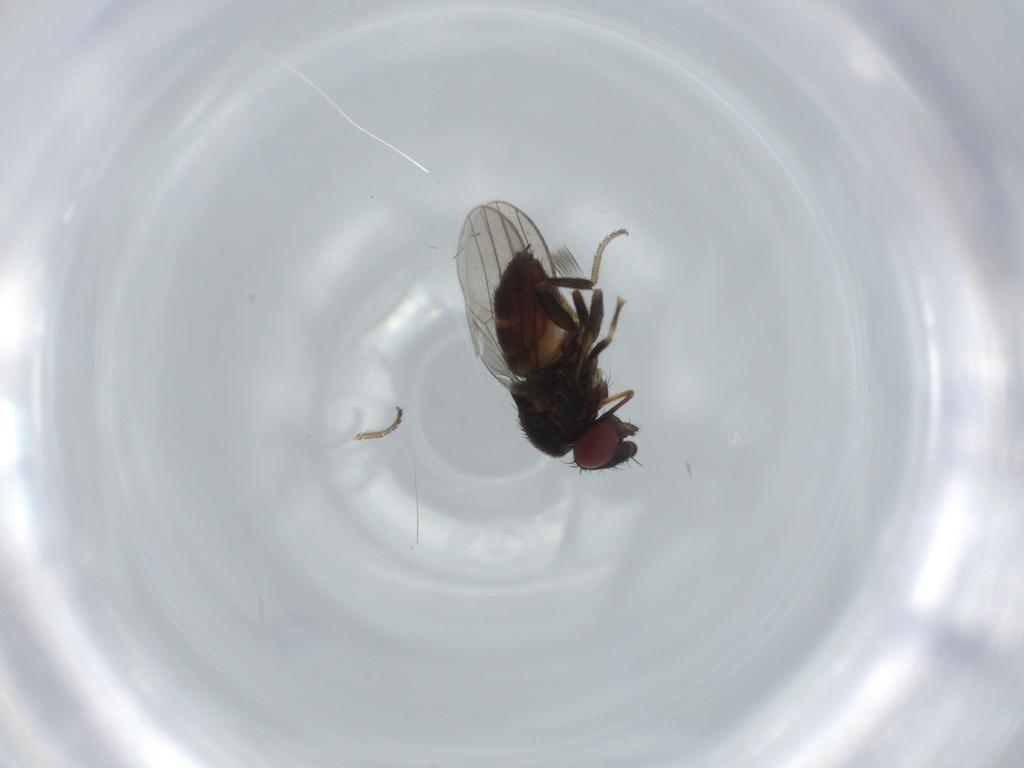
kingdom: Animalia
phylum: Arthropoda
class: Insecta
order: Diptera
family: Milichiidae
